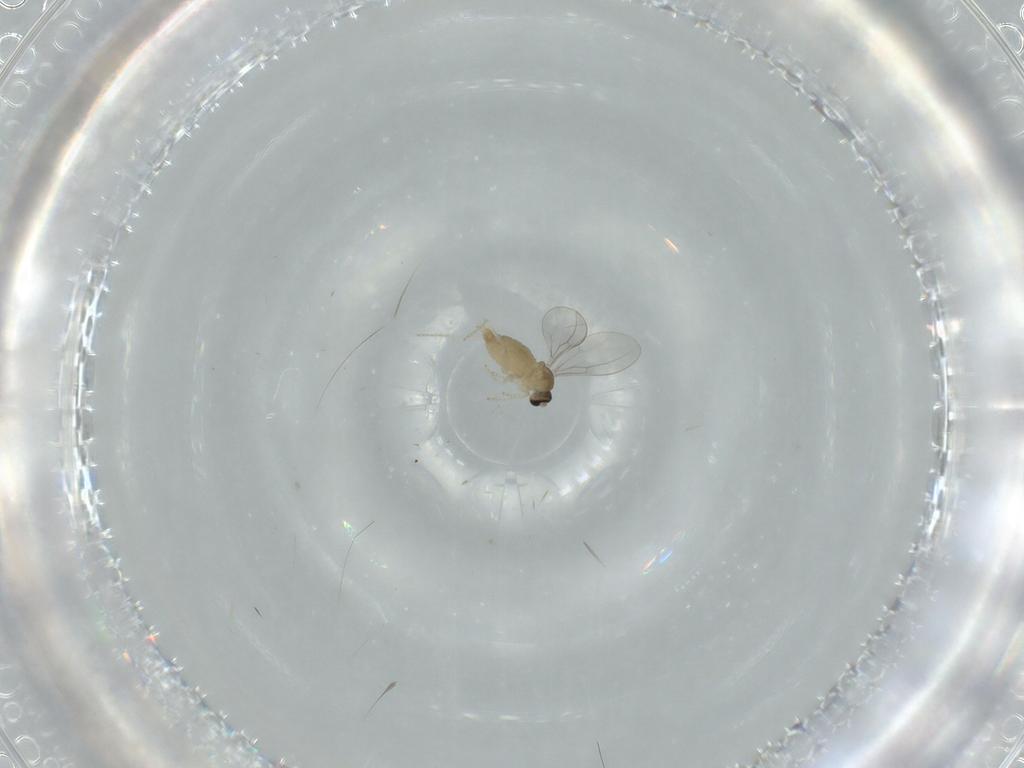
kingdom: Animalia
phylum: Arthropoda
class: Insecta
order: Diptera
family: Cecidomyiidae
